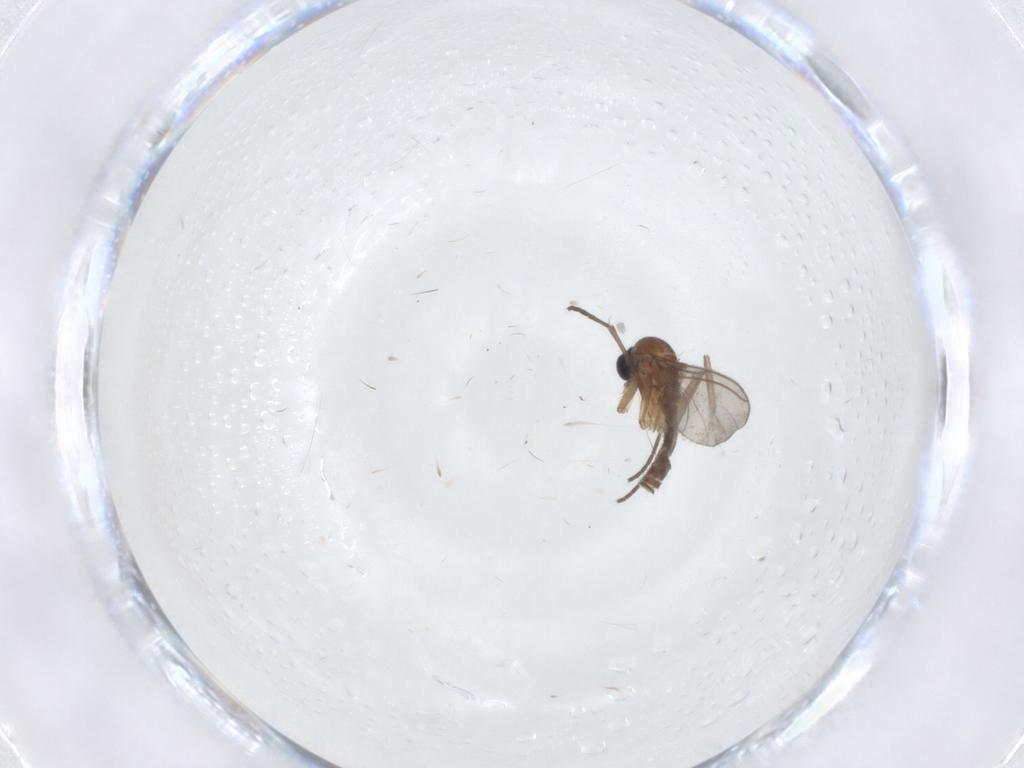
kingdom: Animalia
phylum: Arthropoda
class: Insecta
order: Diptera
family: Sciaridae
